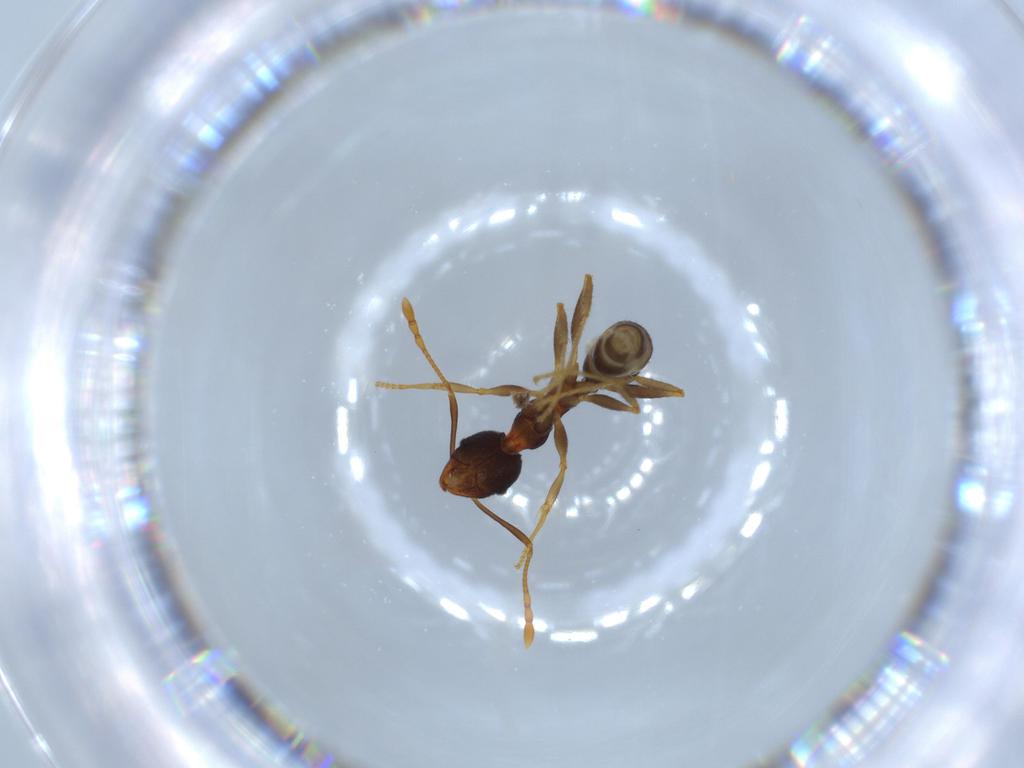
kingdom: Animalia
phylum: Arthropoda
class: Insecta
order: Hymenoptera
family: Formicidae
